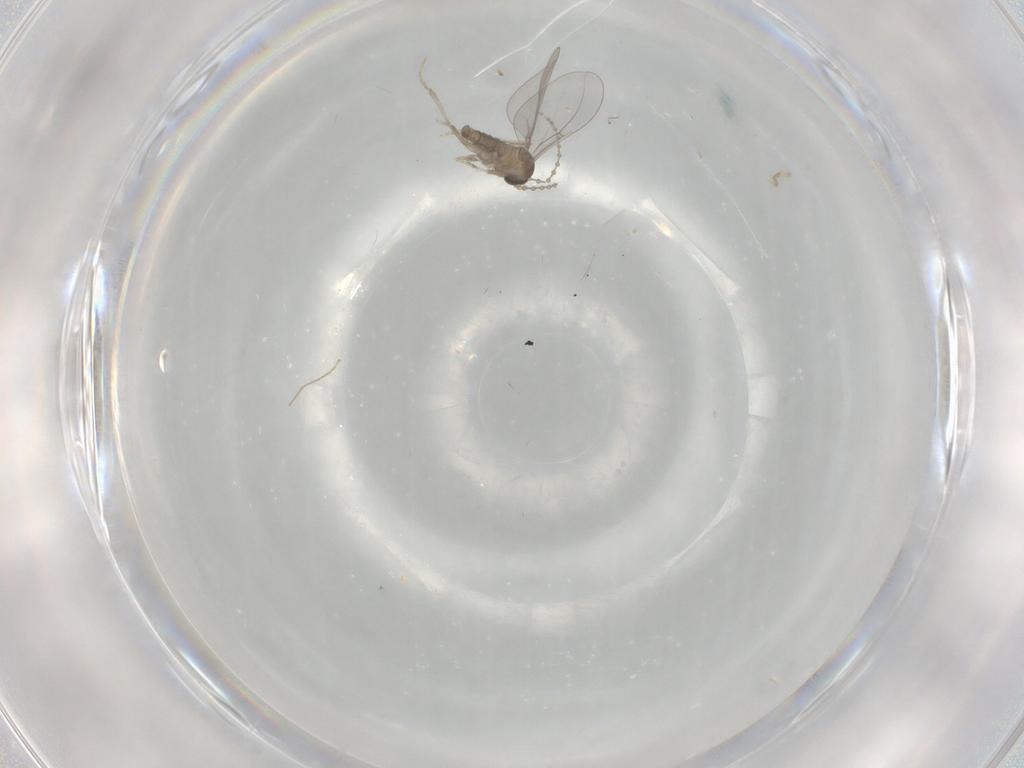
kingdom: Animalia
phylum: Arthropoda
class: Insecta
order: Diptera
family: Cecidomyiidae
